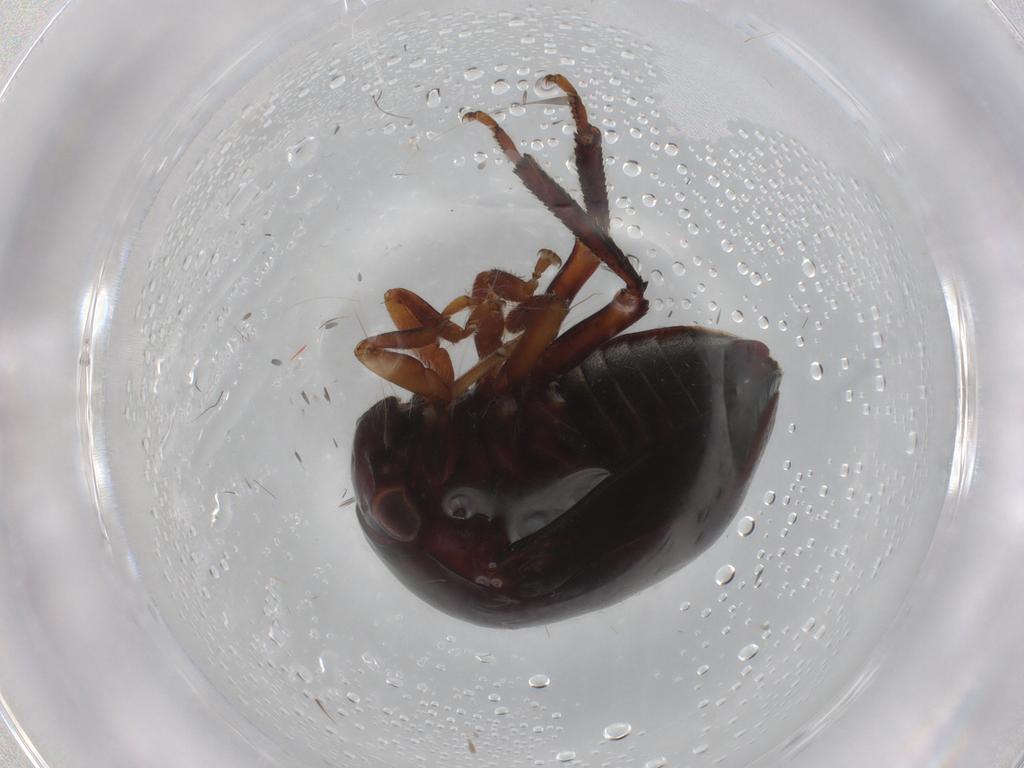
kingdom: Animalia
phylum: Arthropoda
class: Insecta
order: Hemiptera
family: Membracidae
